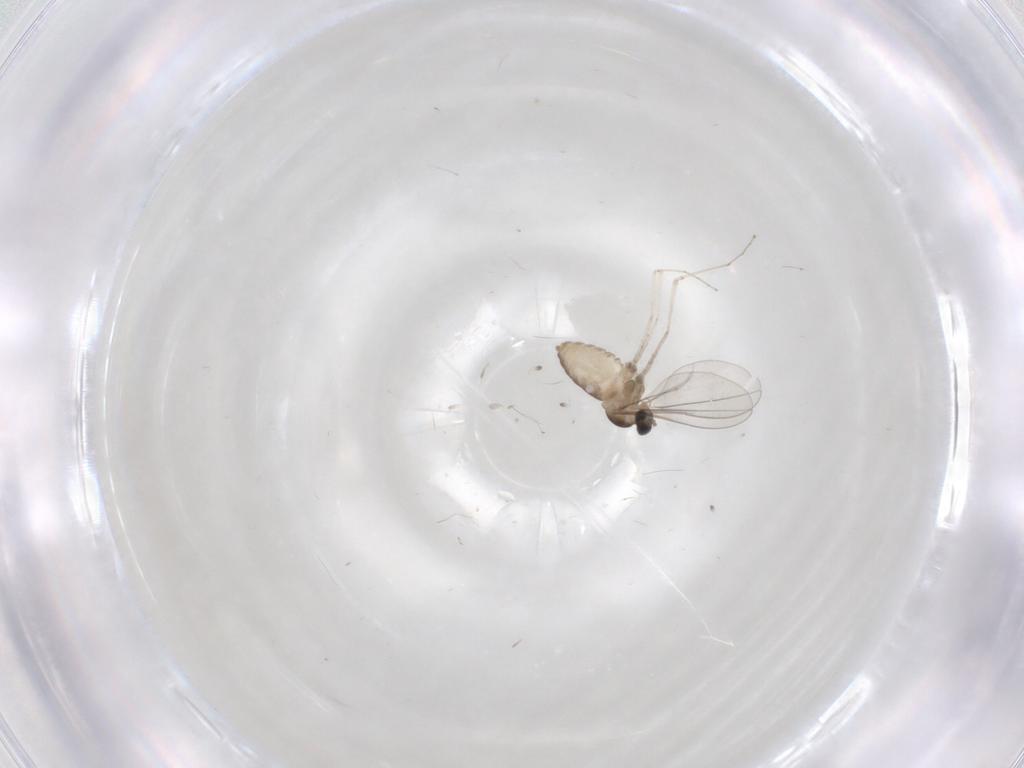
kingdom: Animalia
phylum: Arthropoda
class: Insecta
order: Diptera
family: Cecidomyiidae
